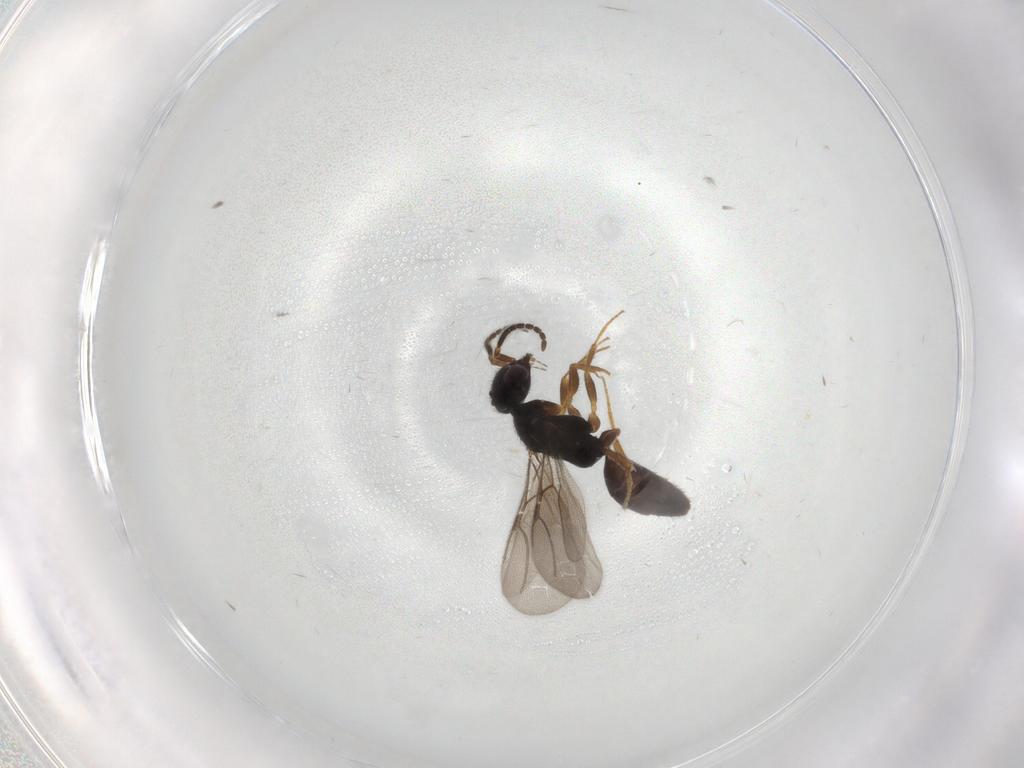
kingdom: Animalia
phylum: Arthropoda
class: Insecta
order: Hymenoptera
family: Bethylidae
